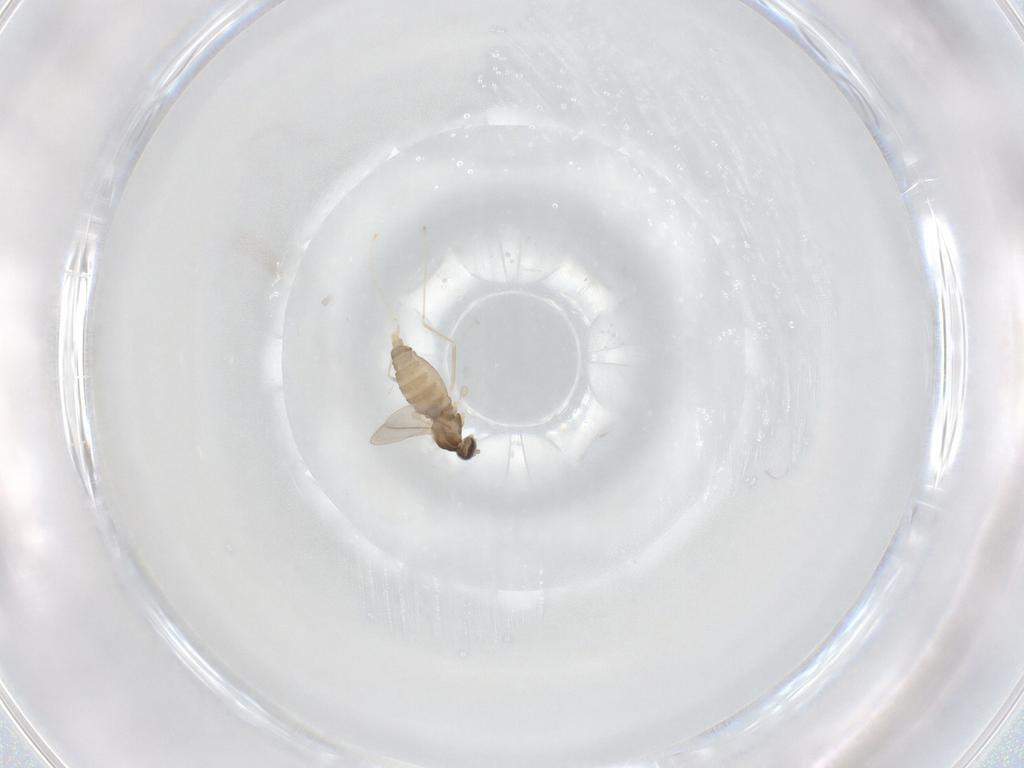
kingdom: Animalia
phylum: Arthropoda
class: Insecta
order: Diptera
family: Cecidomyiidae
